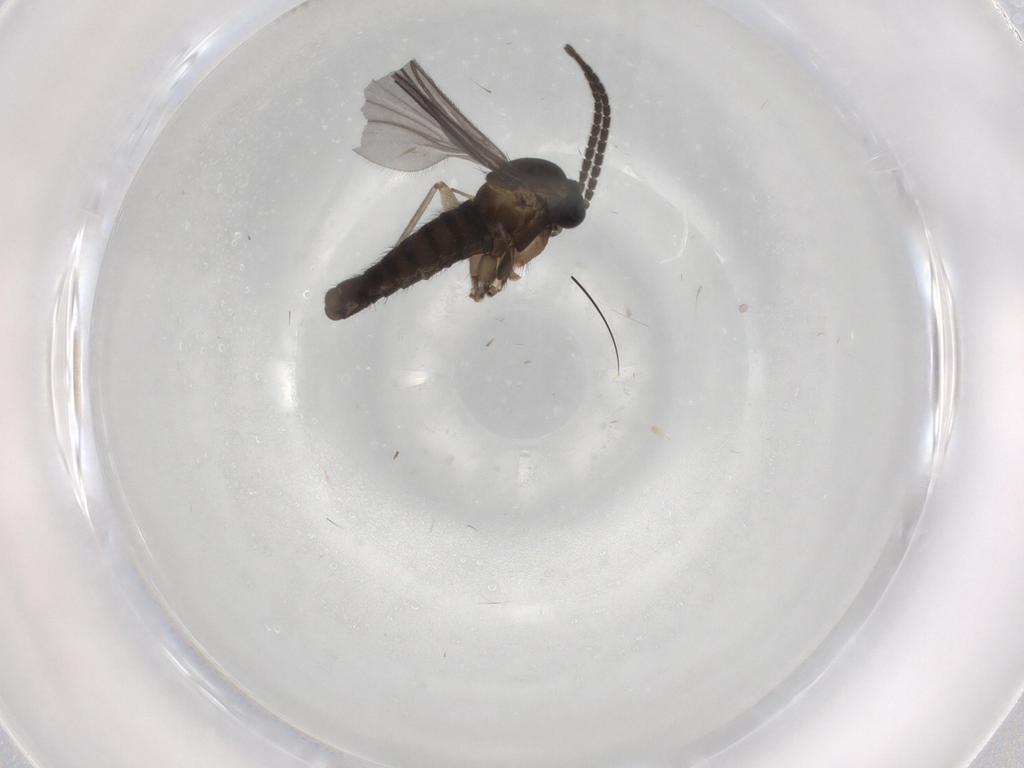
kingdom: Animalia
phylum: Arthropoda
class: Insecta
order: Diptera
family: Sciaridae
